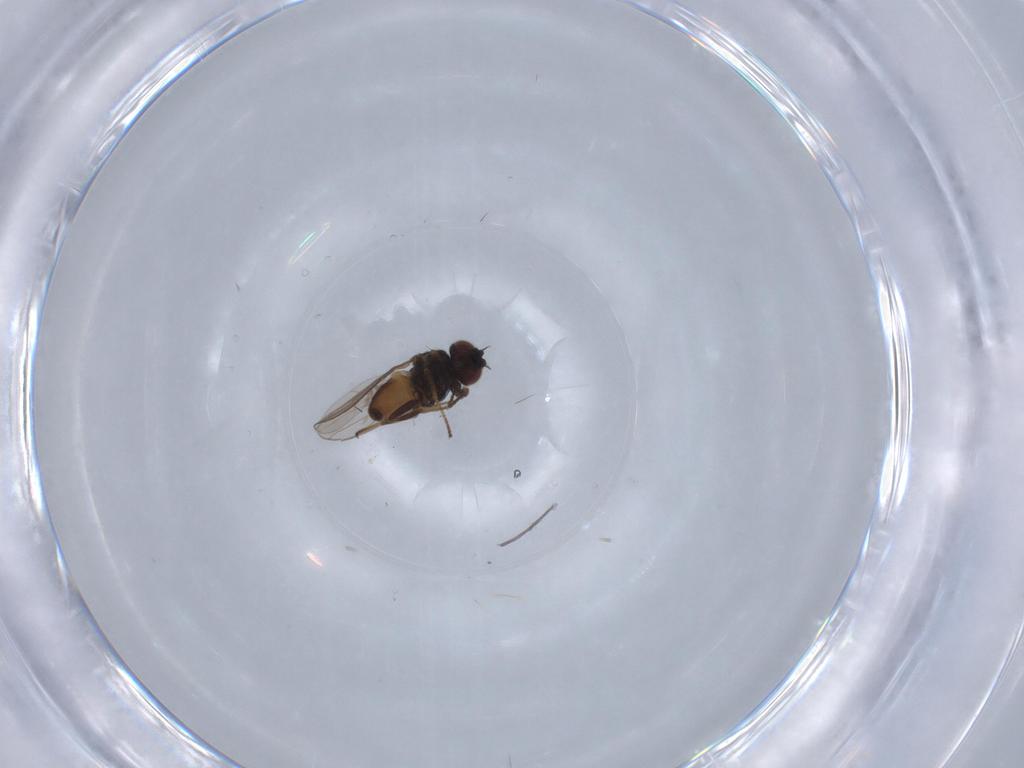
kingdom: Animalia
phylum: Arthropoda
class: Insecta
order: Diptera
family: Chloropidae
